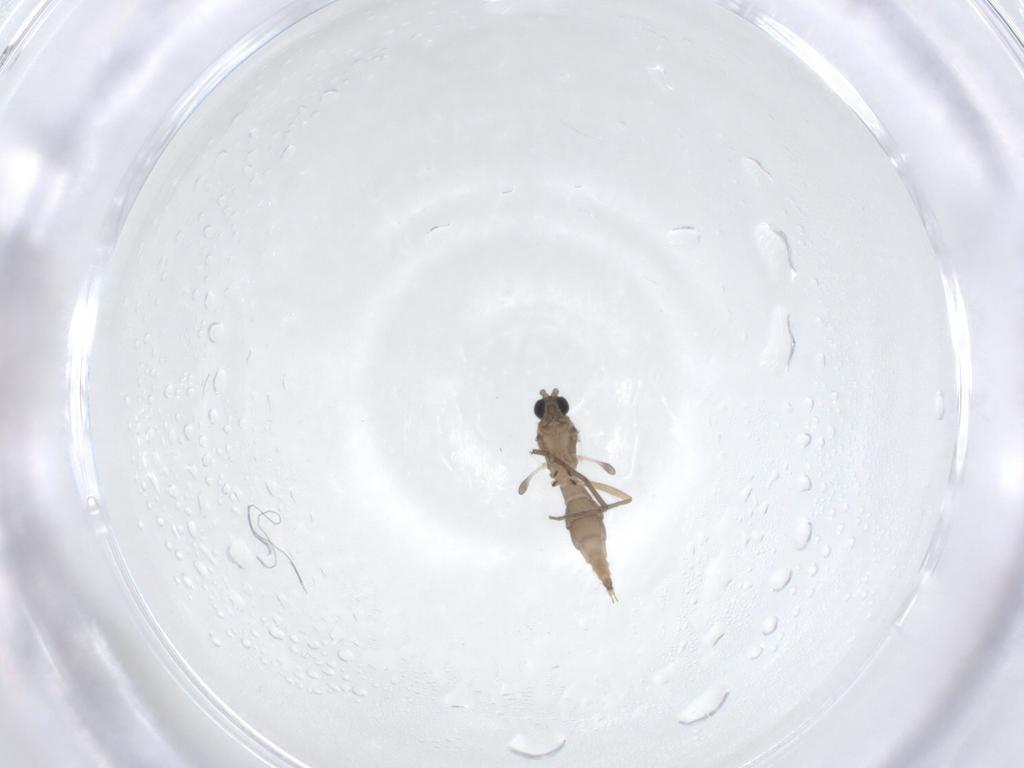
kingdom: Animalia
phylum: Arthropoda
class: Insecta
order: Diptera
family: Sciaridae
